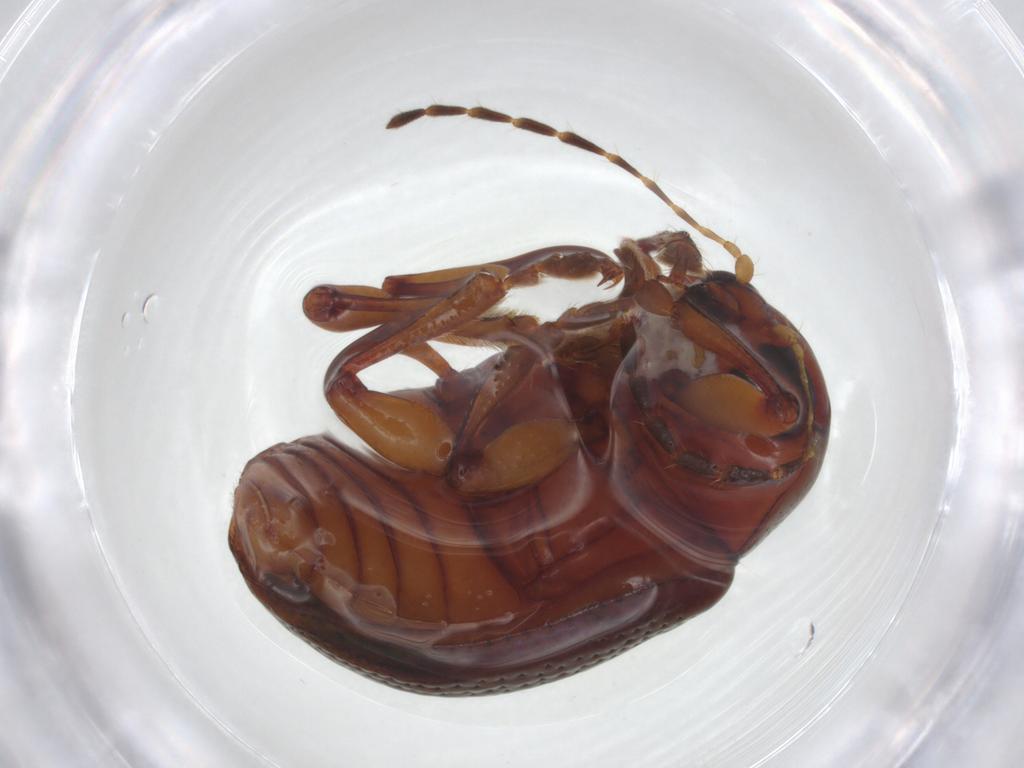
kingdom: Animalia
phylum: Arthropoda
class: Insecta
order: Coleoptera
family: Chrysomelidae
